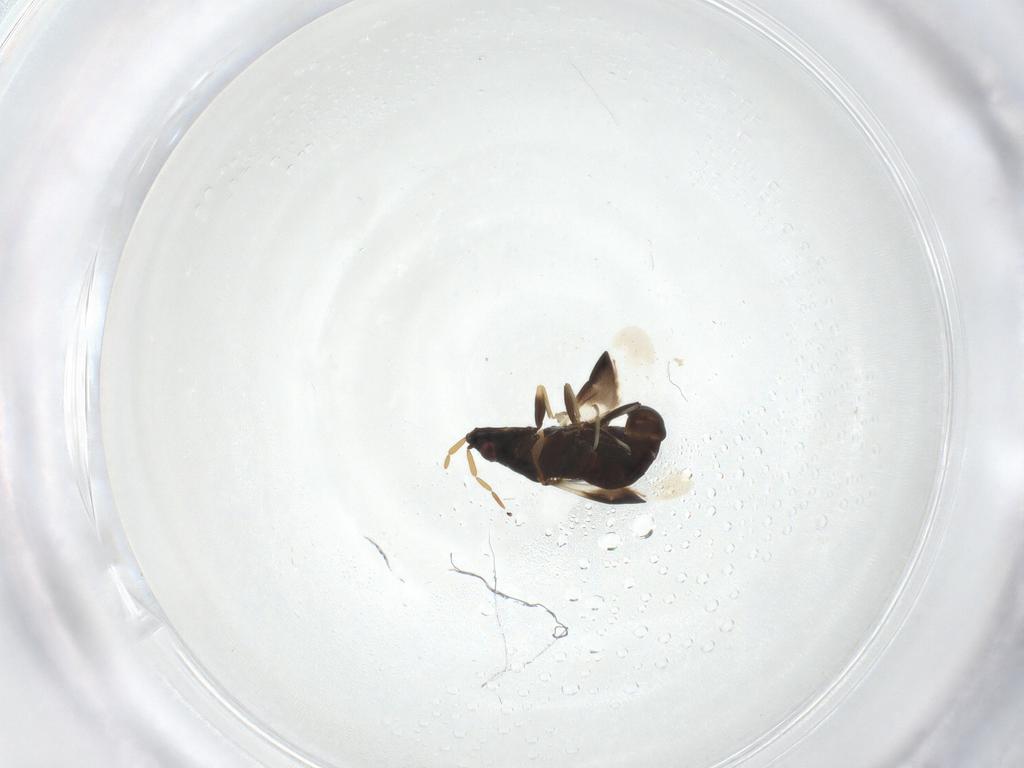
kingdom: Animalia
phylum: Arthropoda
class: Insecta
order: Hemiptera
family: Anthocoridae
